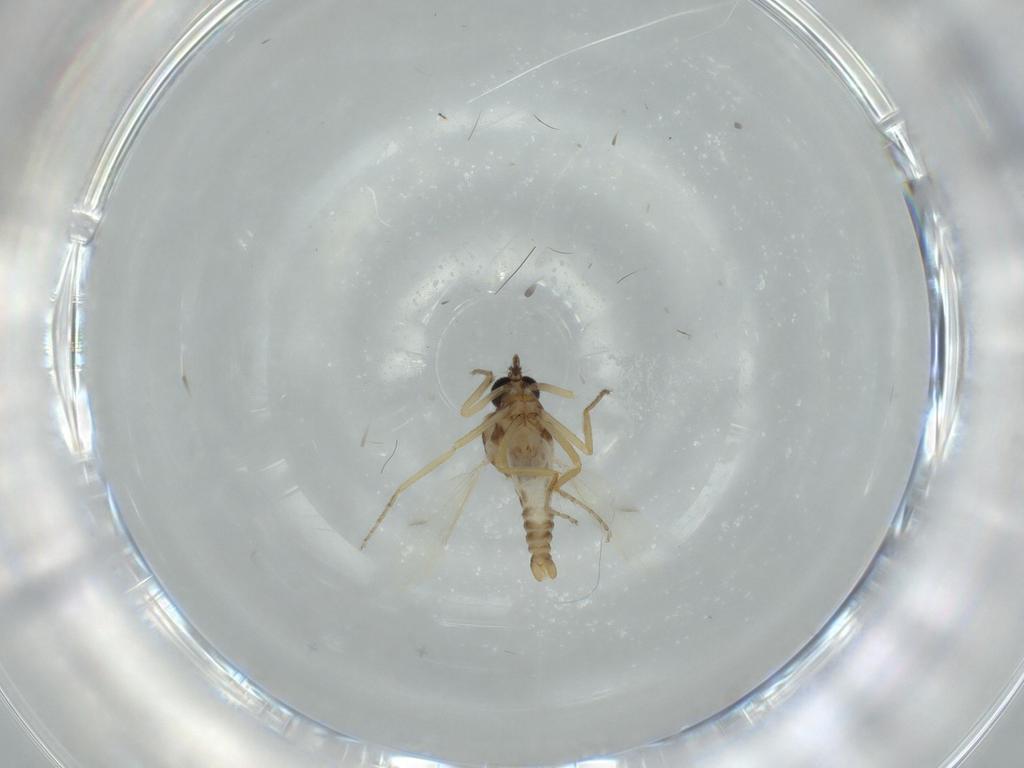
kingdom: Animalia
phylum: Arthropoda
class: Insecta
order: Diptera
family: Ceratopogonidae
